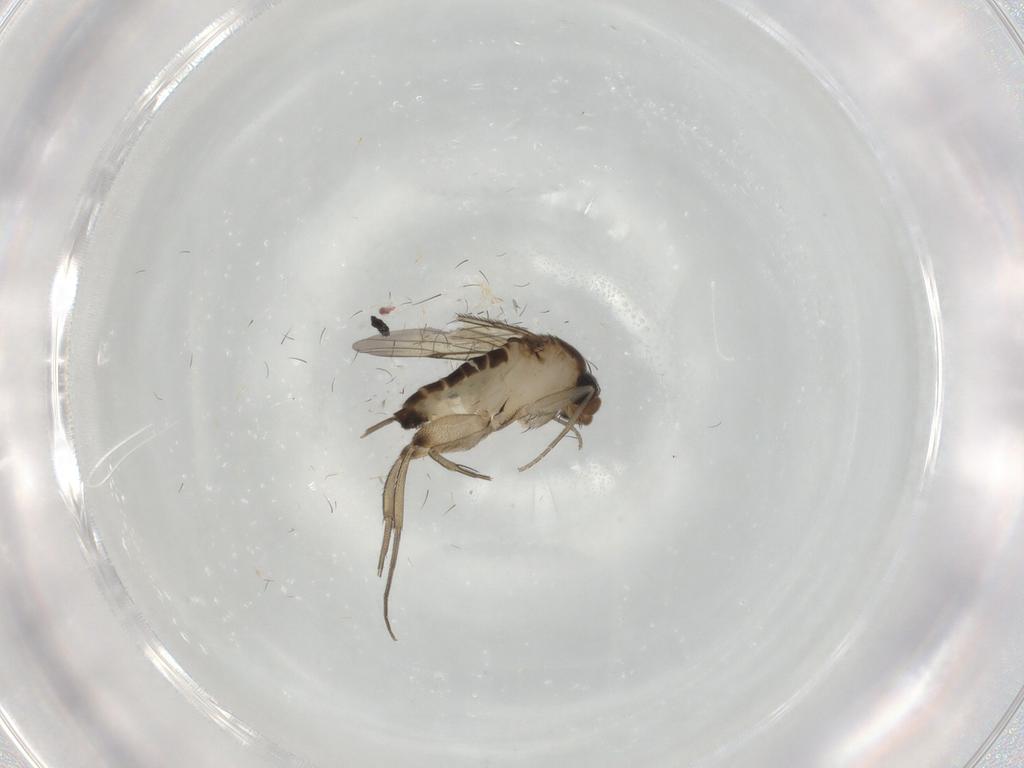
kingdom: Animalia
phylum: Arthropoda
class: Insecta
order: Diptera
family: Phoridae
